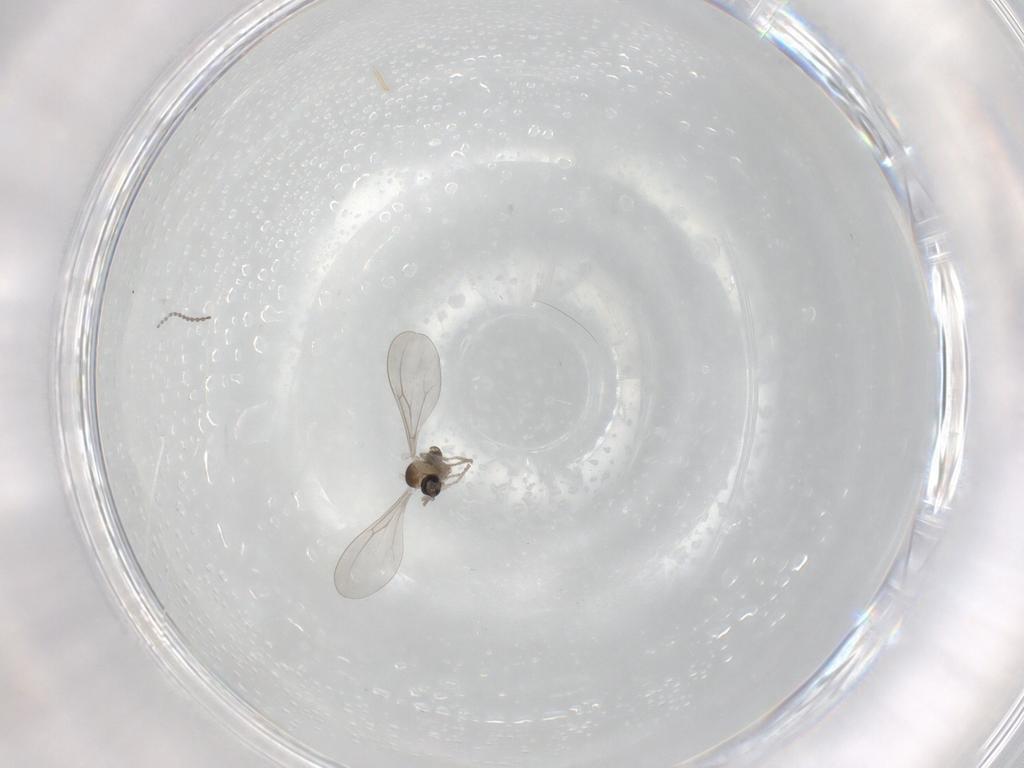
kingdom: Animalia
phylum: Arthropoda
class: Insecta
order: Diptera
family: Cecidomyiidae
